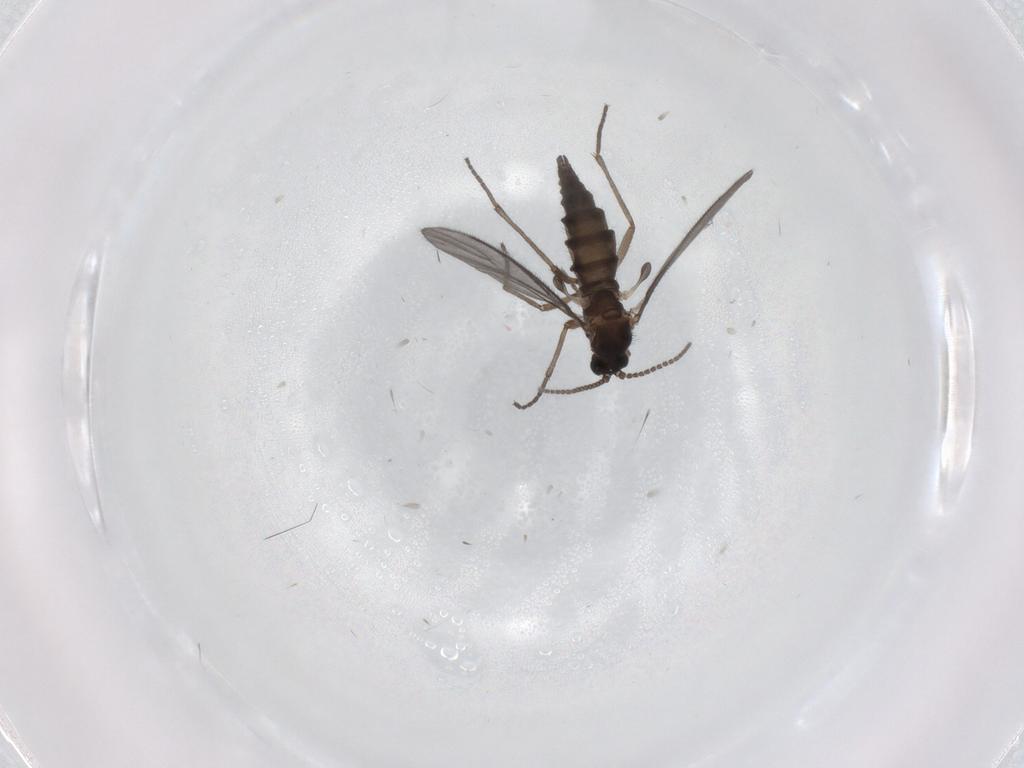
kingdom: Animalia
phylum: Arthropoda
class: Insecta
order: Diptera
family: Sciaridae
